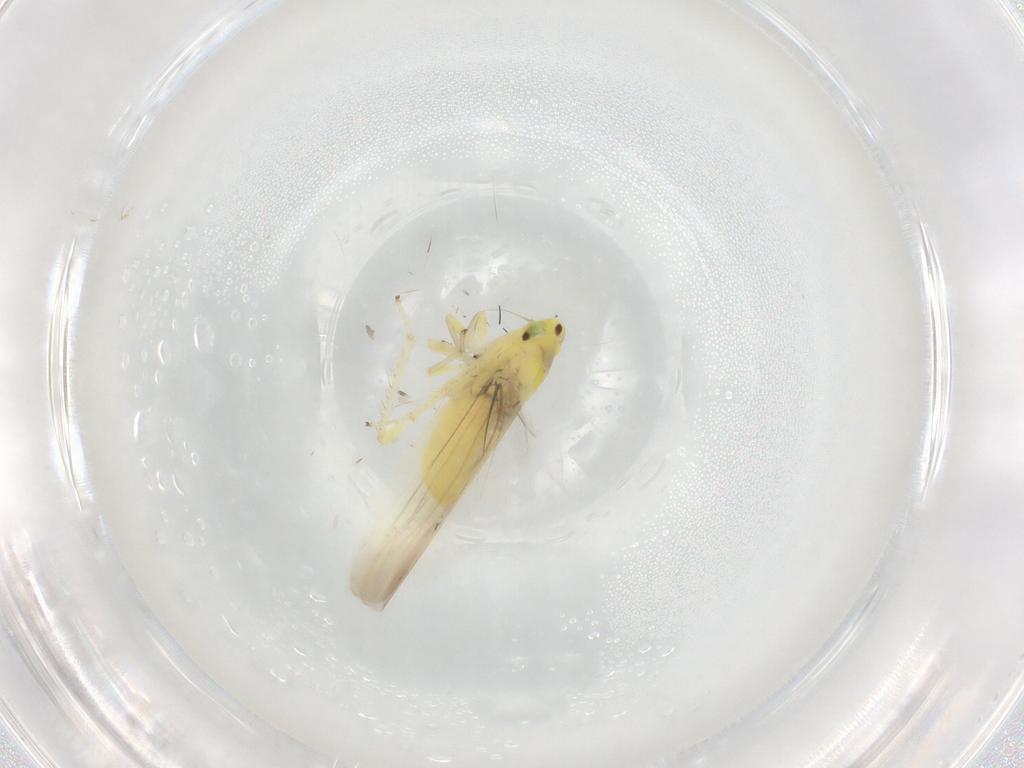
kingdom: Animalia
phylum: Arthropoda
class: Insecta
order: Hemiptera
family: Cicadellidae
